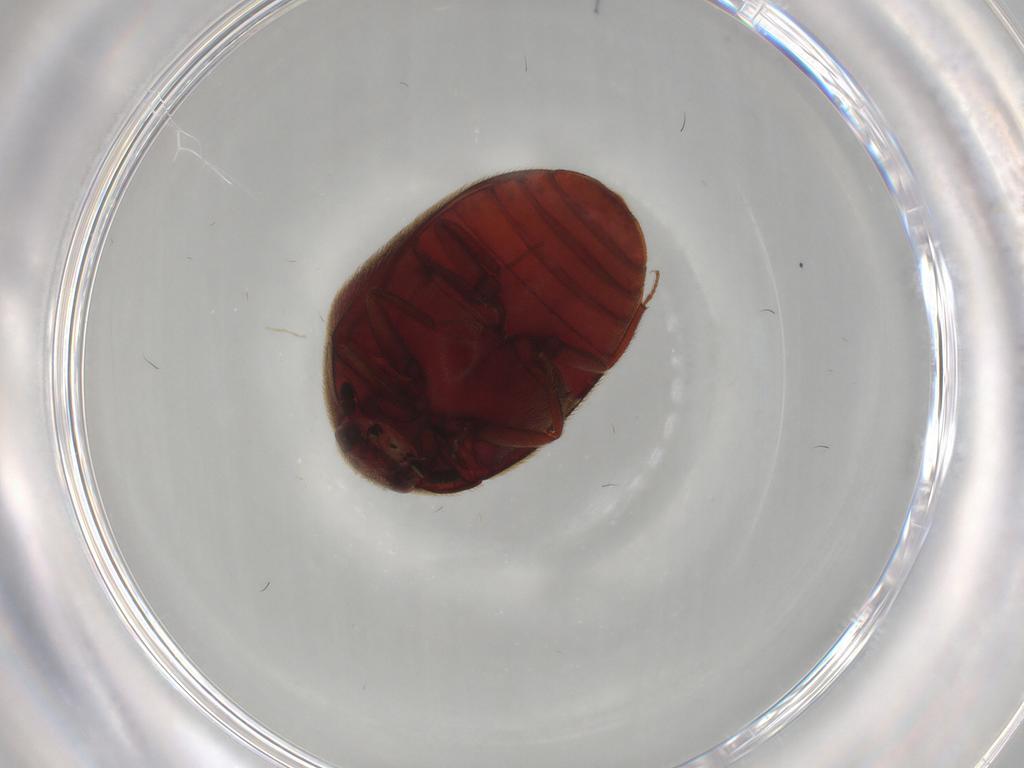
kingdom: Animalia
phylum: Arthropoda
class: Insecta
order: Coleoptera
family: Dermestidae
